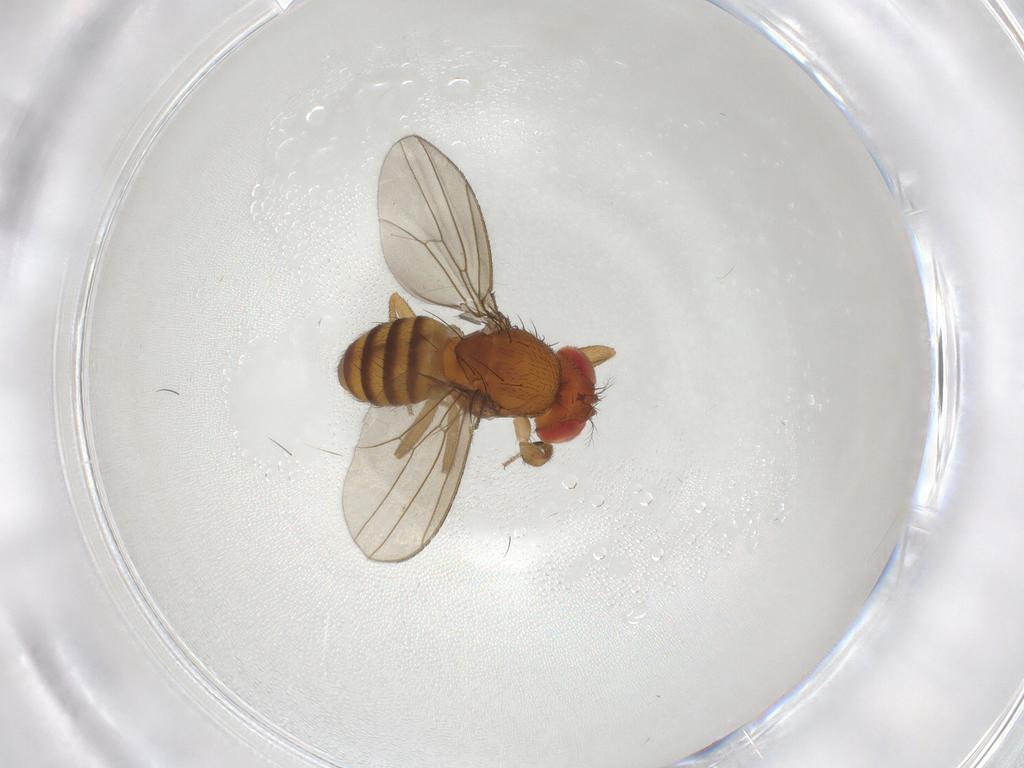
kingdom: Animalia
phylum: Arthropoda
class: Insecta
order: Diptera
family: Drosophilidae
